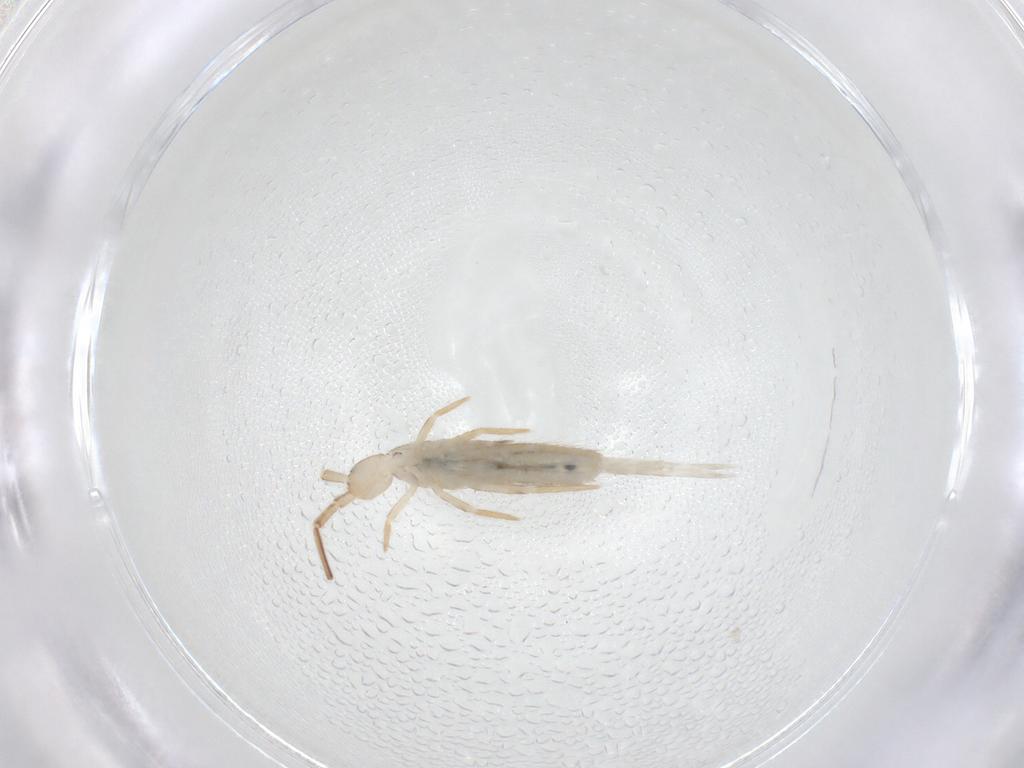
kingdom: Animalia
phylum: Arthropoda
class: Collembola
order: Entomobryomorpha
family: Entomobryidae
